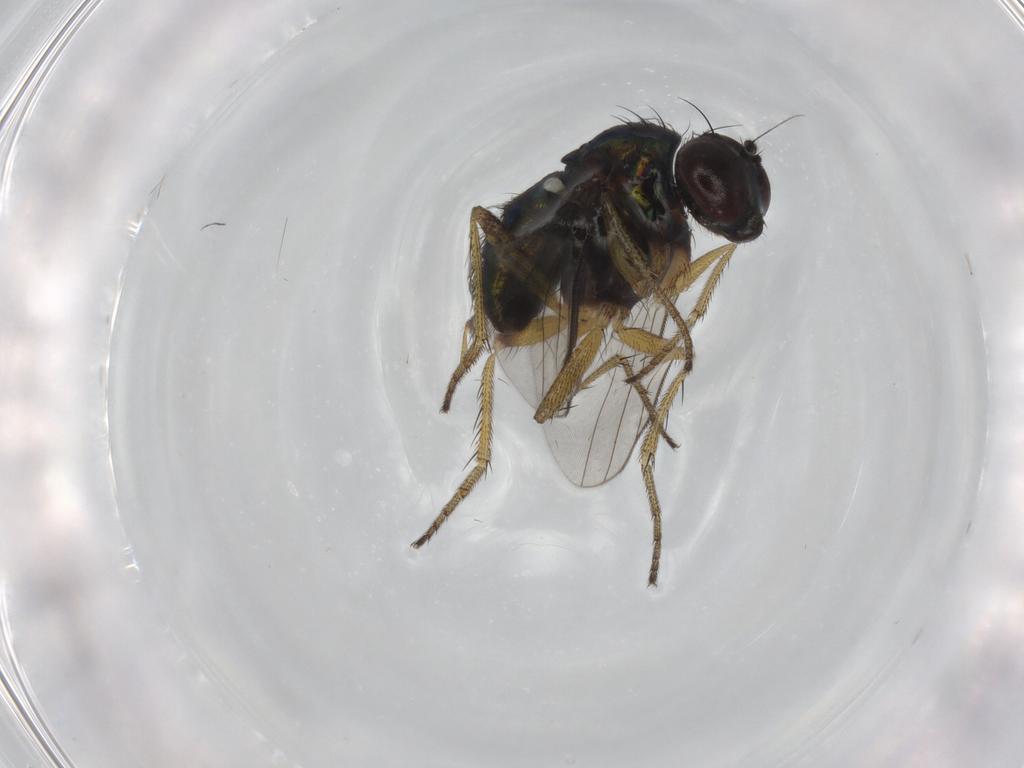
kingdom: Animalia
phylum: Arthropoda
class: Insecta
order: Diptera
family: Dolichopodidae
